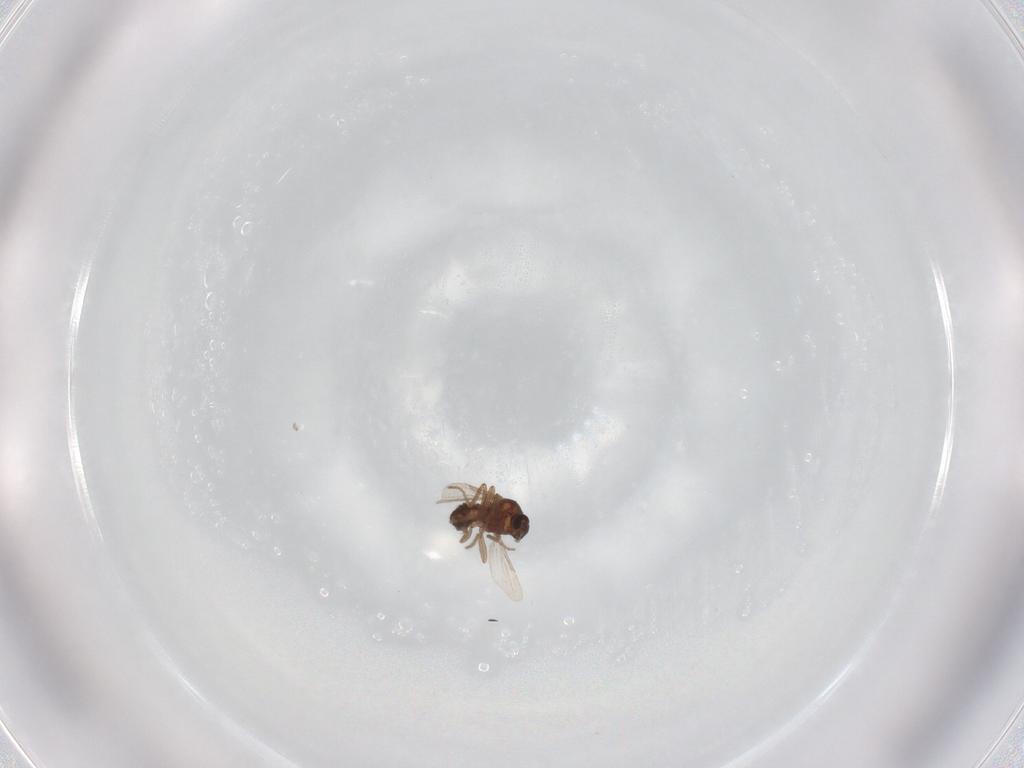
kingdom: Animalia
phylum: Arthropoda
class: Insecta
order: Diptera
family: Ceratopogonidae
